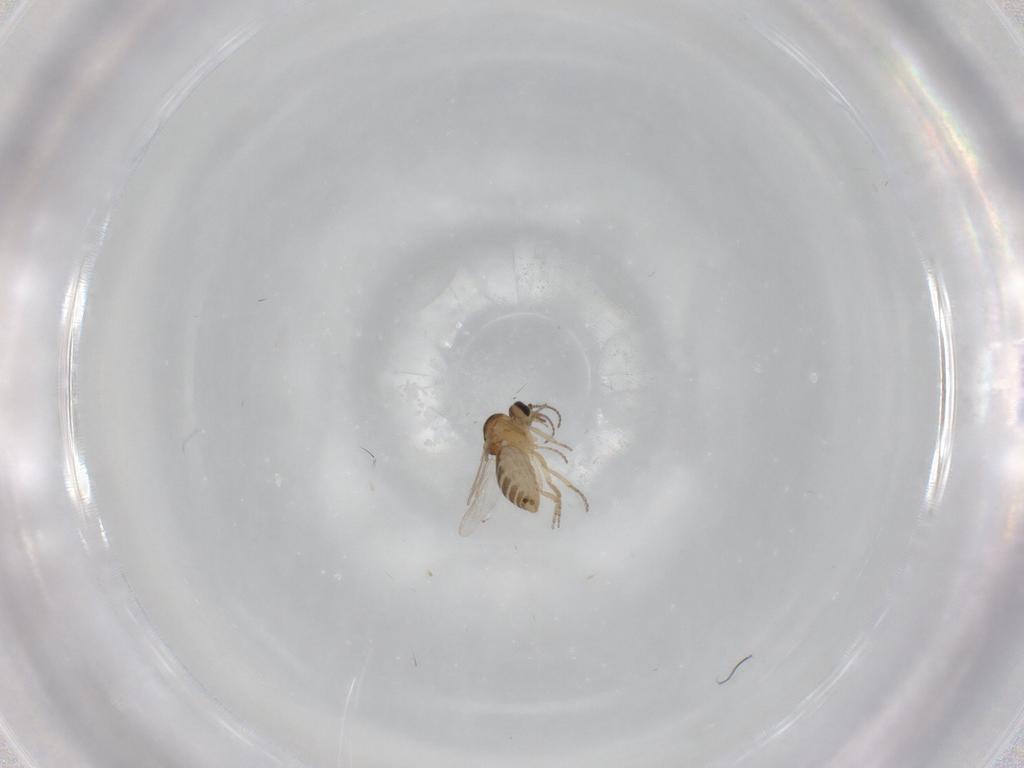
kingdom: Animalia
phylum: Arthropoda
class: Insecta
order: Diptera
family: Ceratopogonidae
